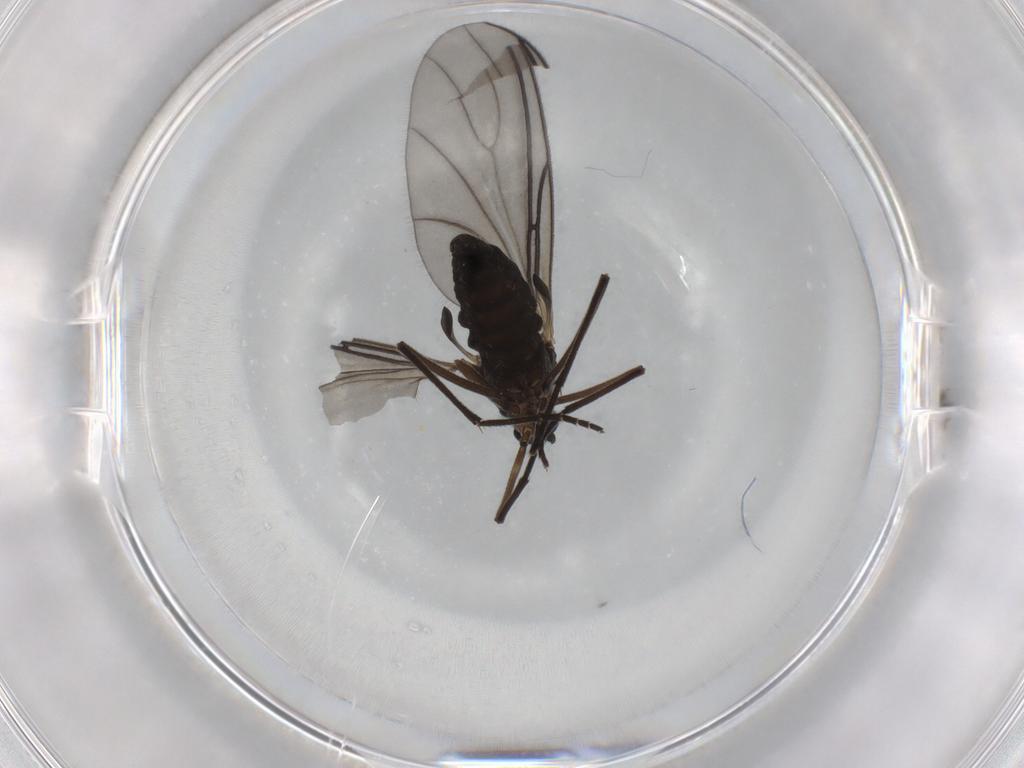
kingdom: Animalia
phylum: Arthropoda
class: Insecta
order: Diptera
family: Sciaridae
